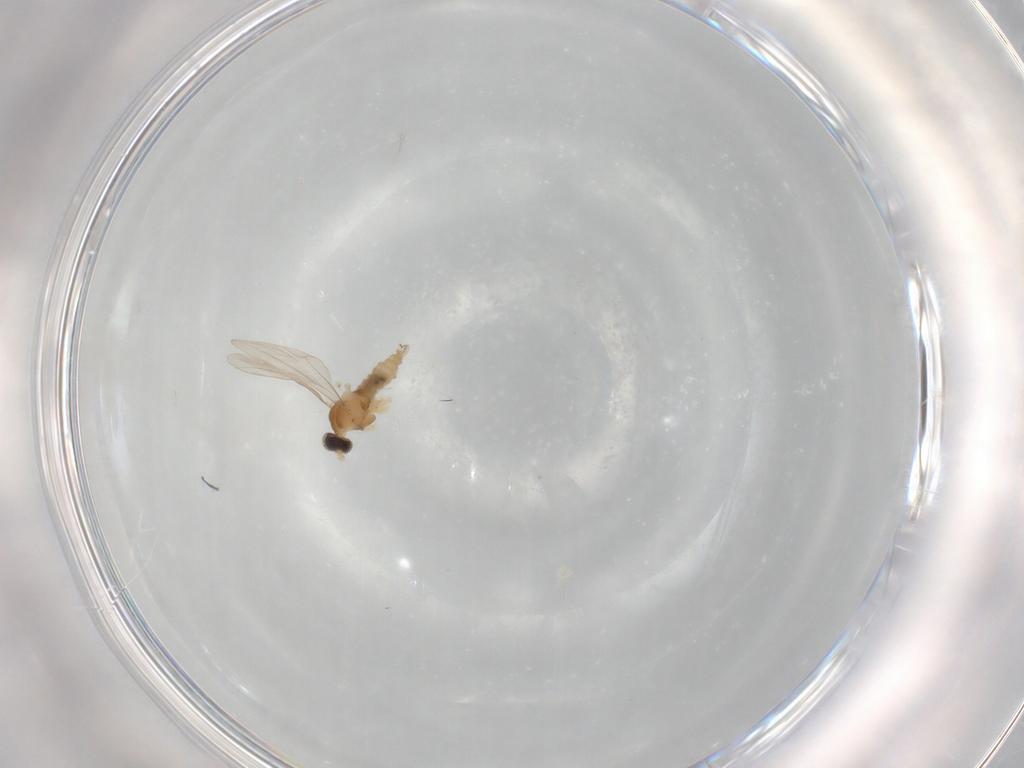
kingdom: Animalia
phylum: Arthropoda
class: Insecta
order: Diptera
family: Cecidomyiidae
